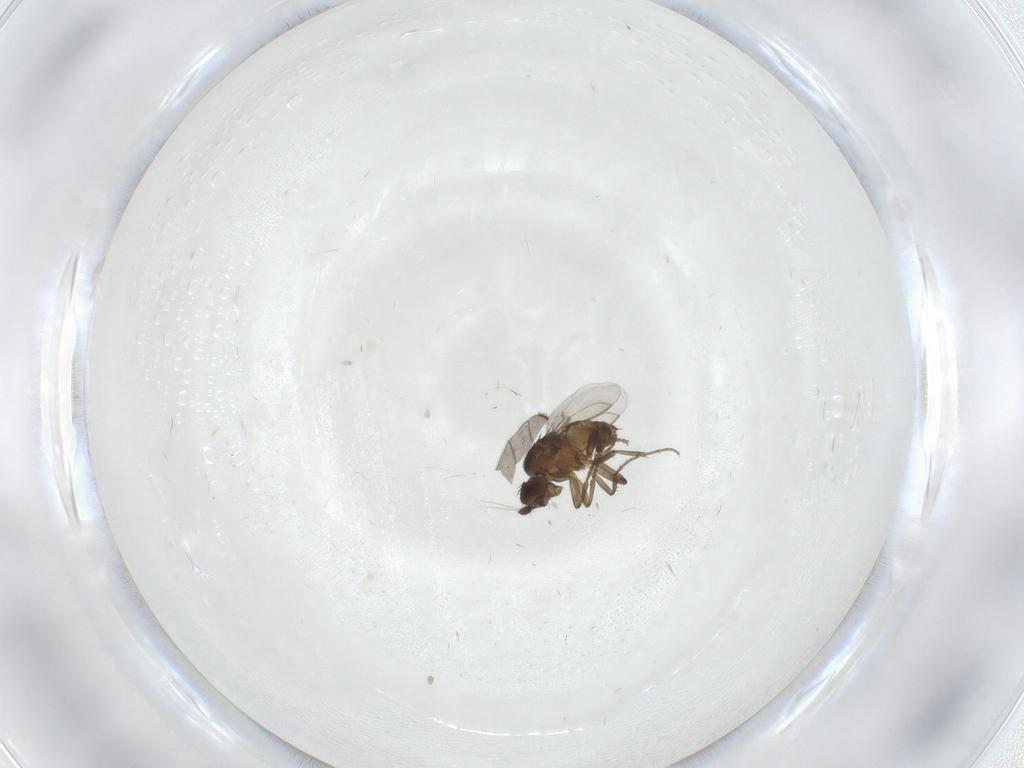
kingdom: Animalia
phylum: Arthropoda
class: Insecta
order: Diptera
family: Sciaridae
